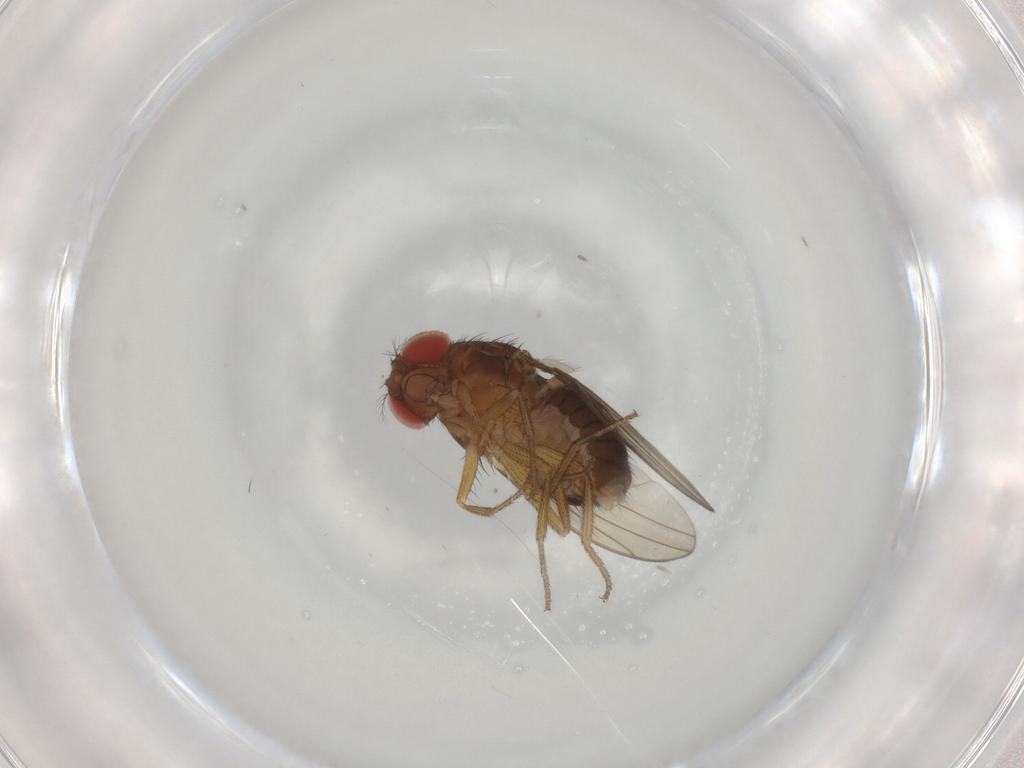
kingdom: Animalia
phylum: Arthropoda
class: Insecta
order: Diptera
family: Drosophilidae
